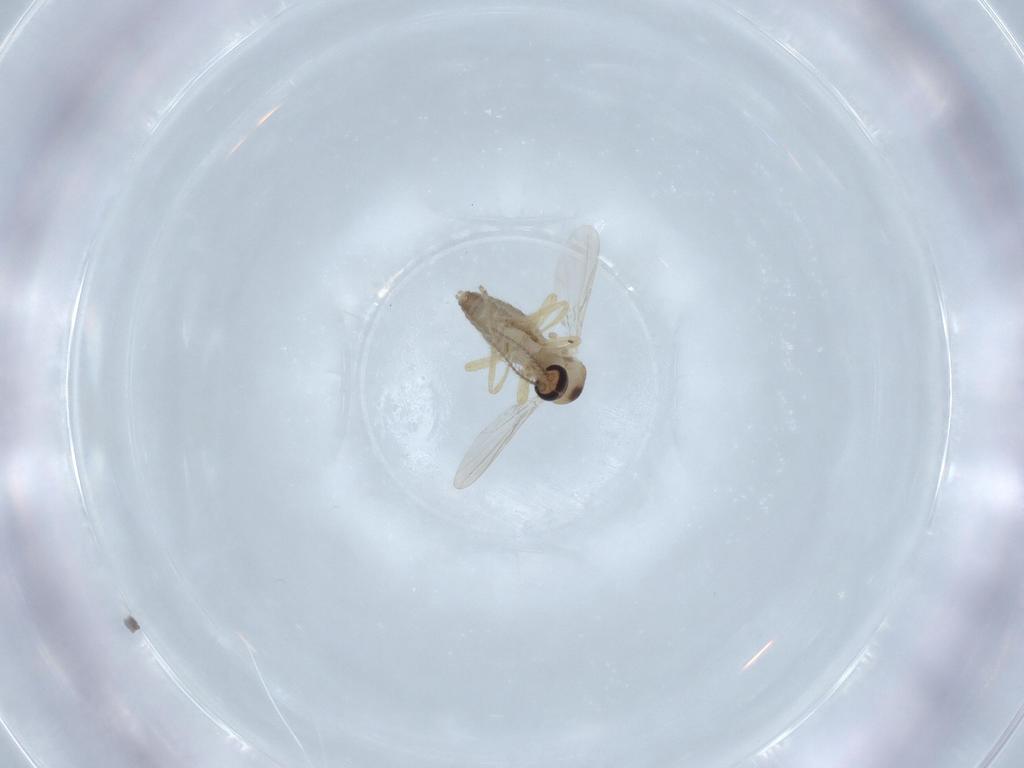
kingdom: Animalia
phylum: Arthropoda
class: Insecta
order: Diptera
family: Ceratopogonidae
